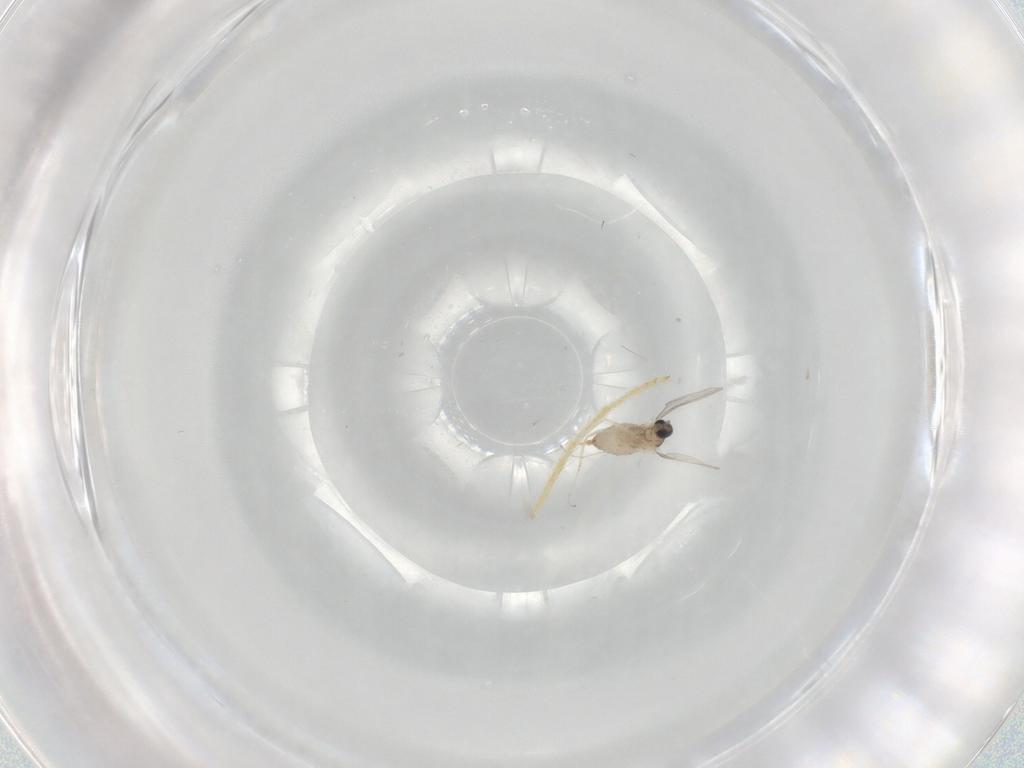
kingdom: Animalia
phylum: Arthropoda
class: Insecta
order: Diptera
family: Cecidomyiidae
